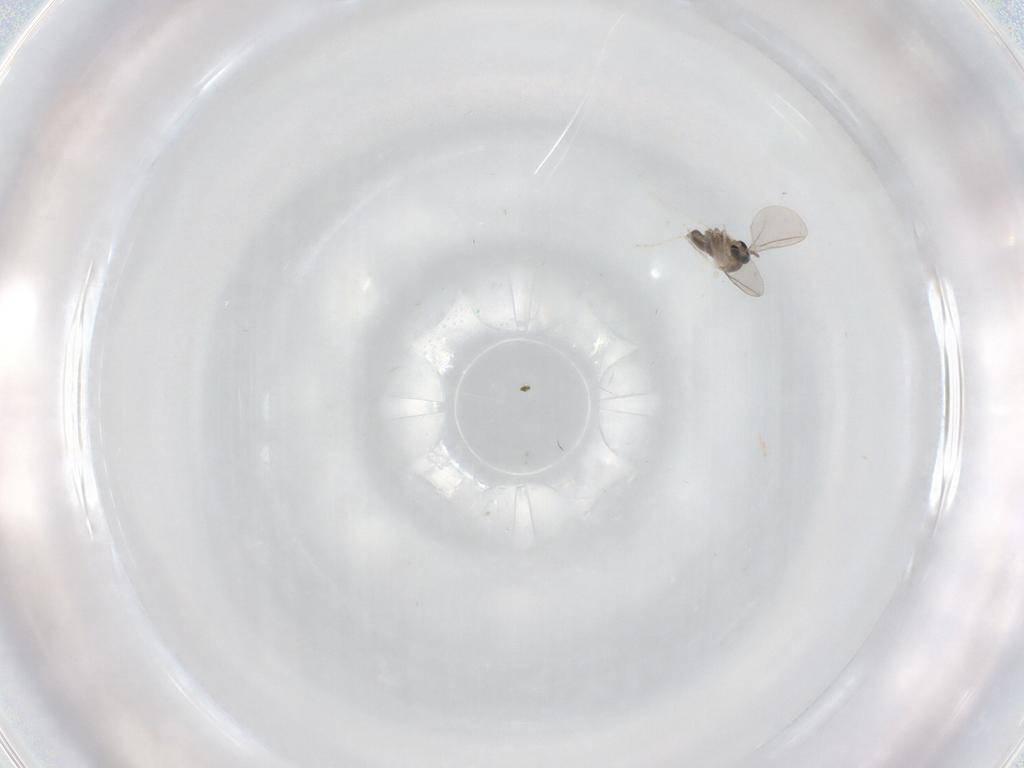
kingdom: Animalia
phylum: Arthropoda
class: Insecta
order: Diptera
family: Cecidomyiidae
